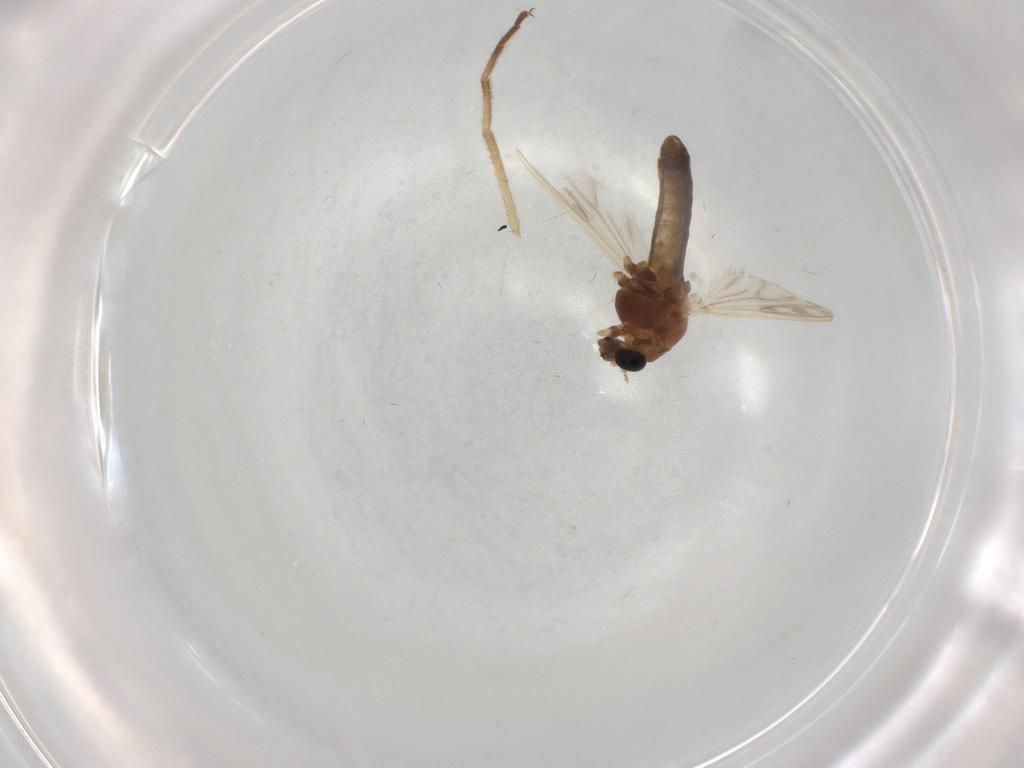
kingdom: Animalia
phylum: Arthropoda
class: Insecta
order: Diptera
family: Chironomidae
